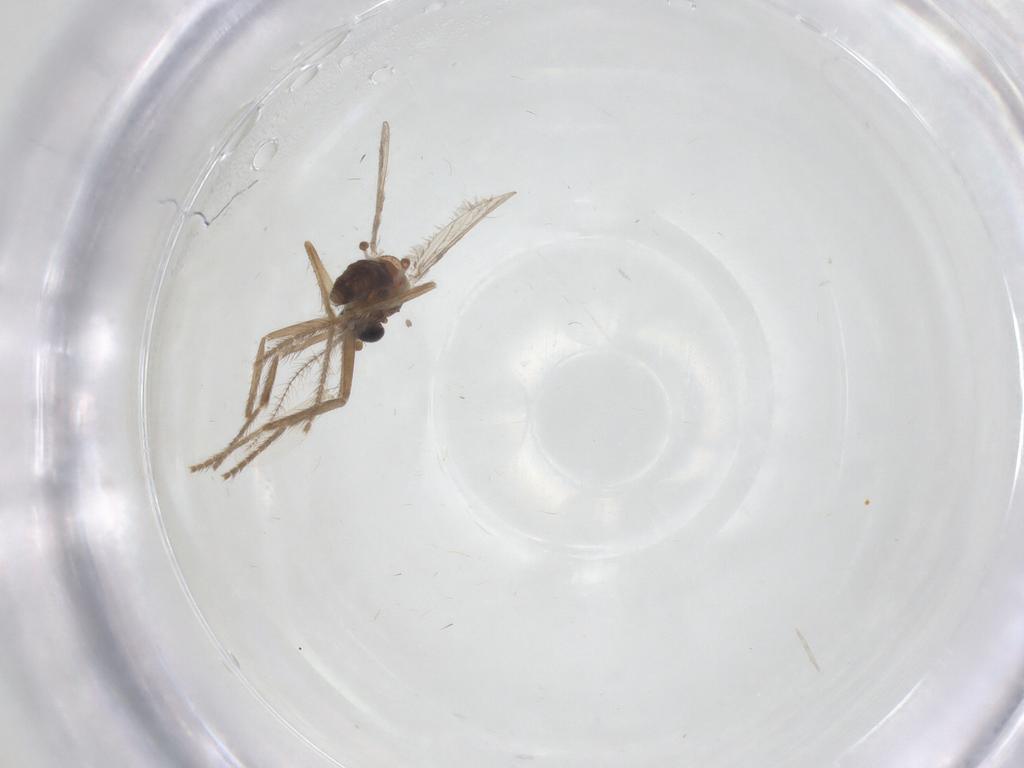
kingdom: Animalia
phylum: Arthropoda
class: Insecta
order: Diptera
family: Corethrellidae
